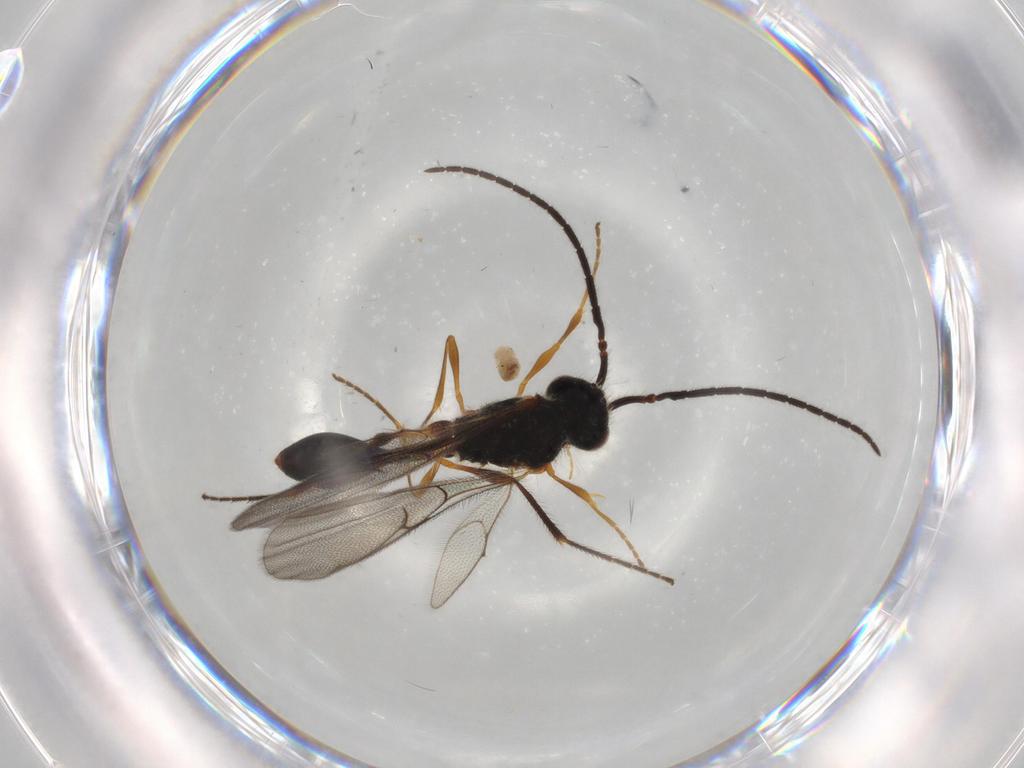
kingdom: Animalia
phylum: Arthropoda
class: Insecta
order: Hymenoptera
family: Diapriidae
